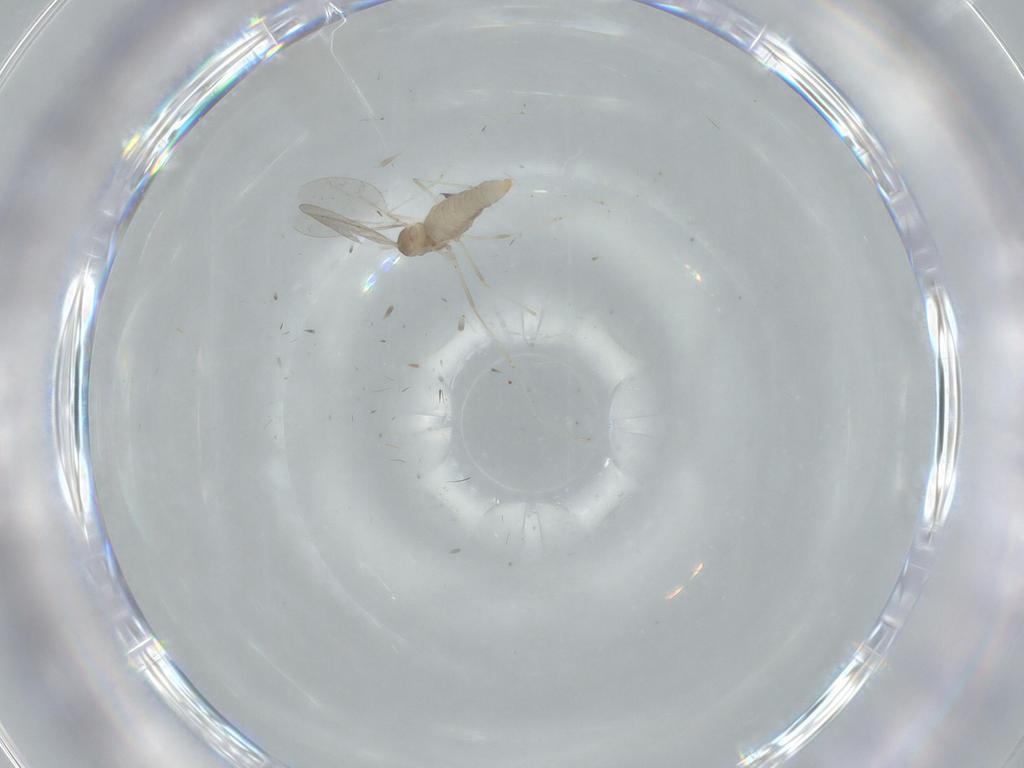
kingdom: Animalia
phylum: Arthropoda
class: Insecta
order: Diptera
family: Cecidomyiidae
